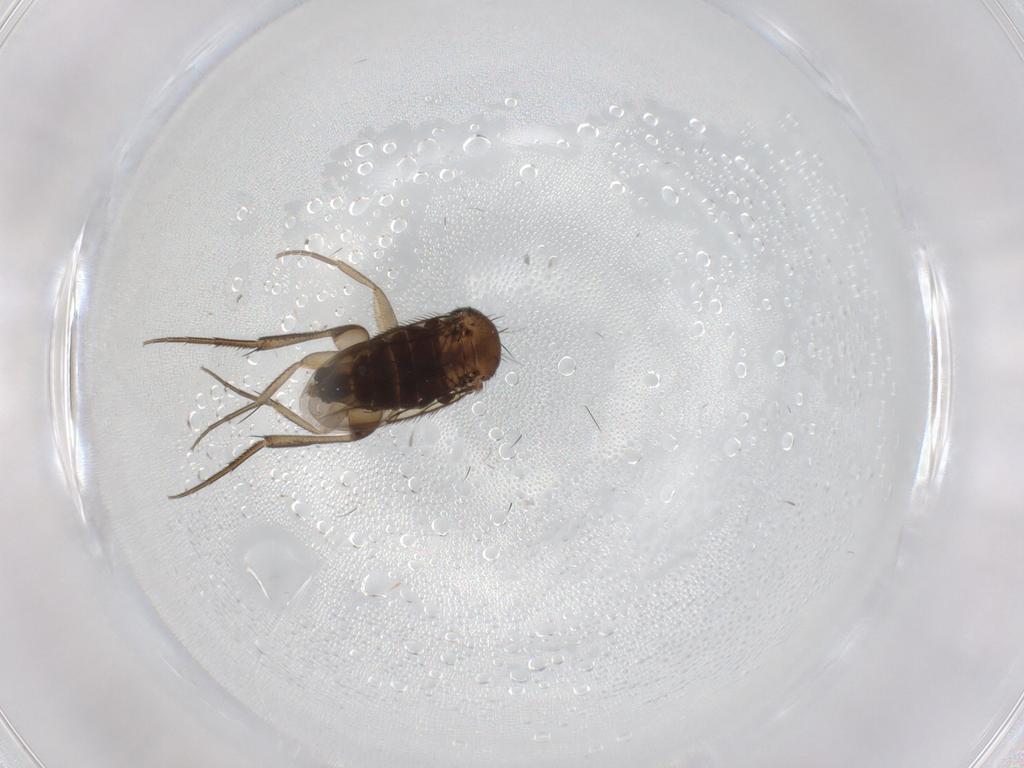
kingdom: Animalia
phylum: Arthropoda
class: Insecta
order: Diptera
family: Phoridae
